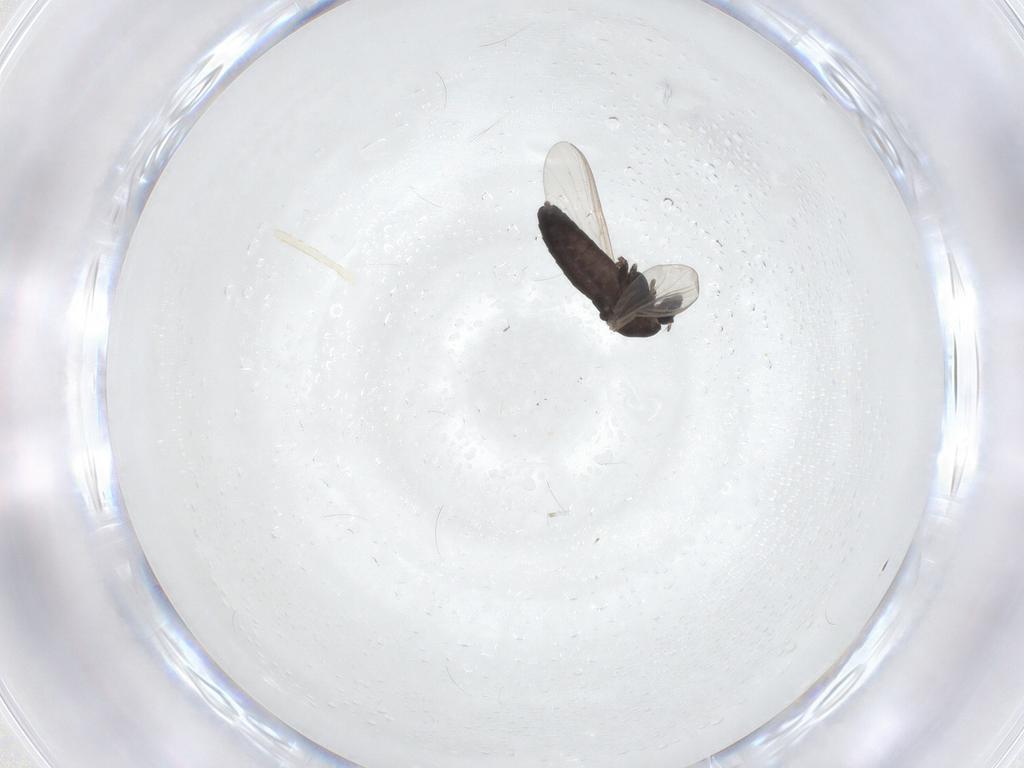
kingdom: Animalia
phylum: Arthropoda
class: Insecta
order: Diptera
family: Chironomidae
